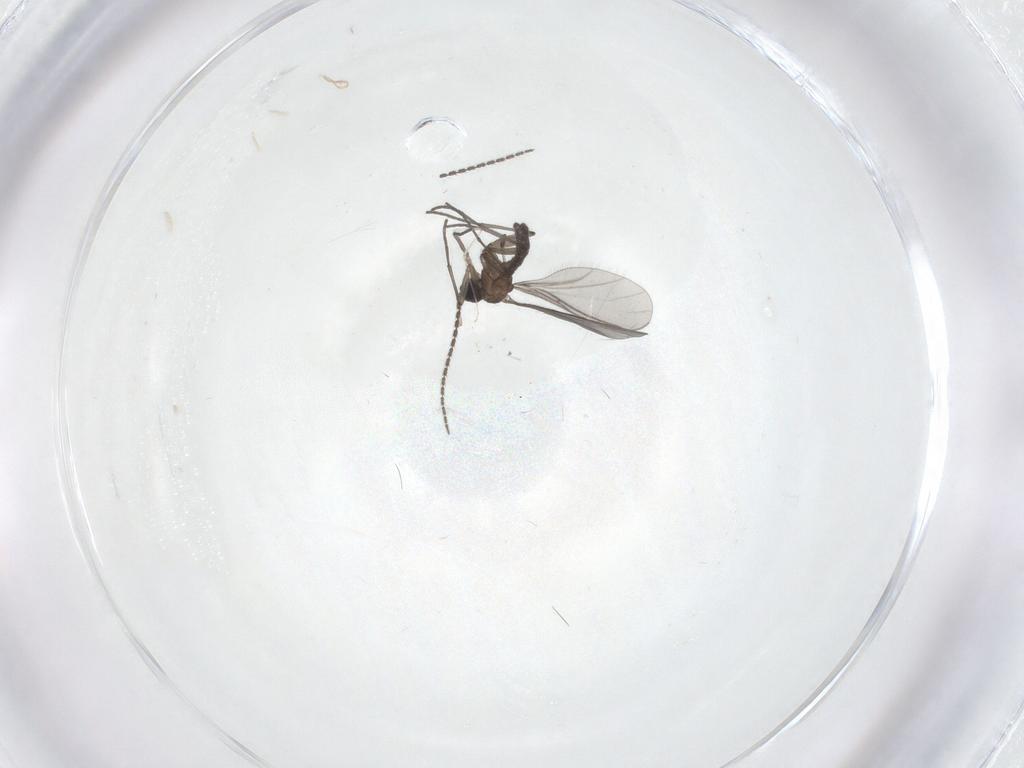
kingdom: Animalia
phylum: Arthropoda
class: Insecta
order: Diptera
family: Sciaridae
